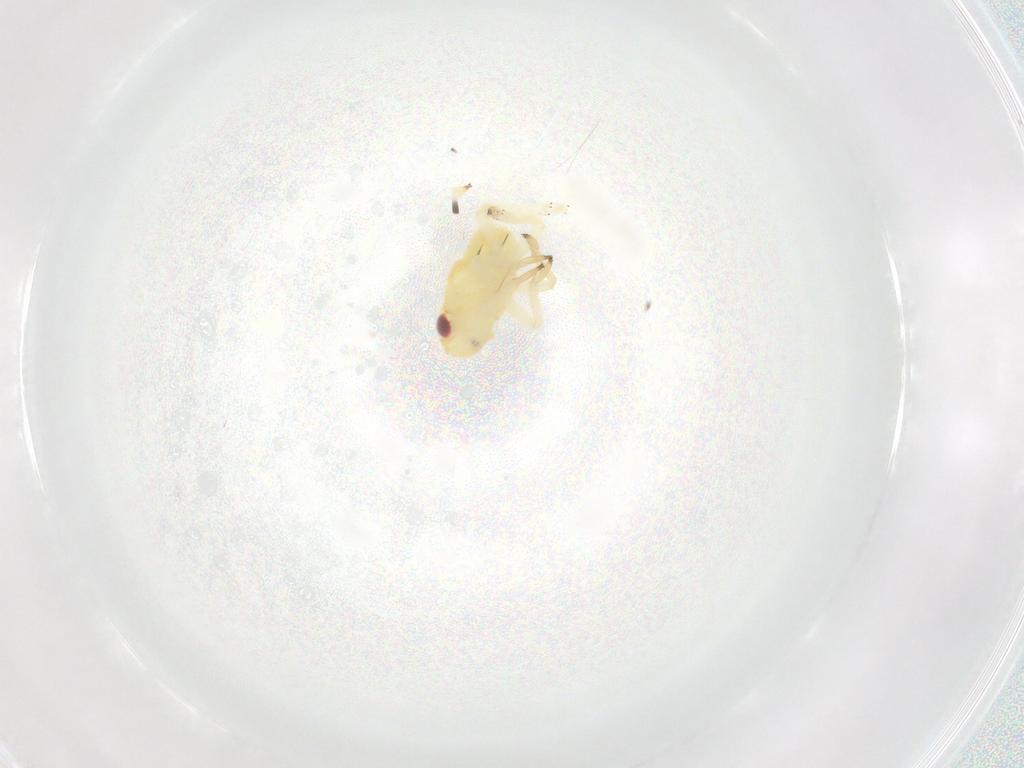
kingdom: Animalia
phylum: Arthropoda
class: Insecta
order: Hemiptera
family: Caliscelidae
